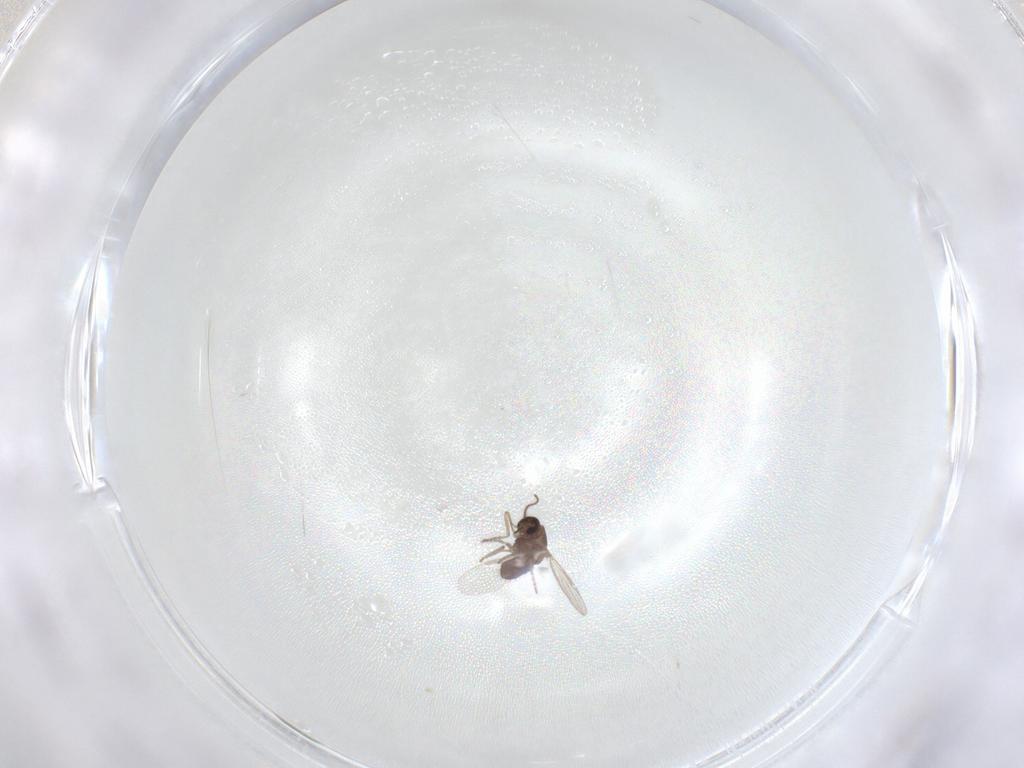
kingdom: Animalia
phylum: Arthropoda
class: Insecta
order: Diptera
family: Ceratopogonidae
